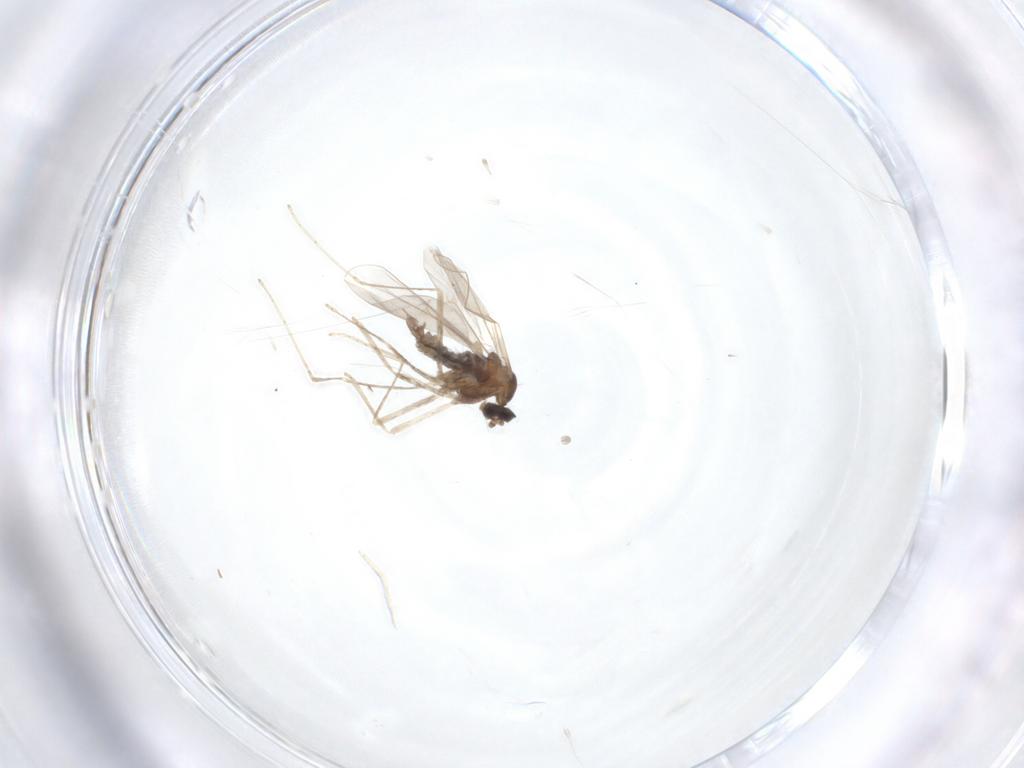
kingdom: Animalia
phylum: Arthropoda
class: Insecta
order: Diptera
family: Cecidomyiidae
